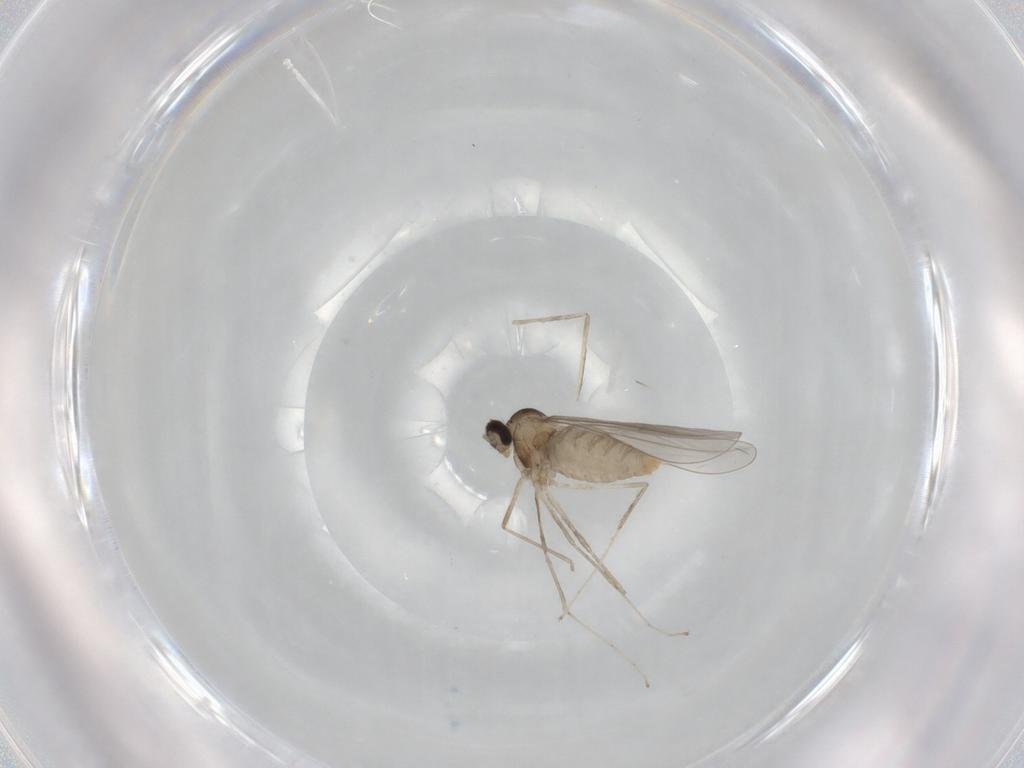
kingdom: Animalia
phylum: Arthropoda
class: Insecta
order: Diptera
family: Cecidomyiidae
